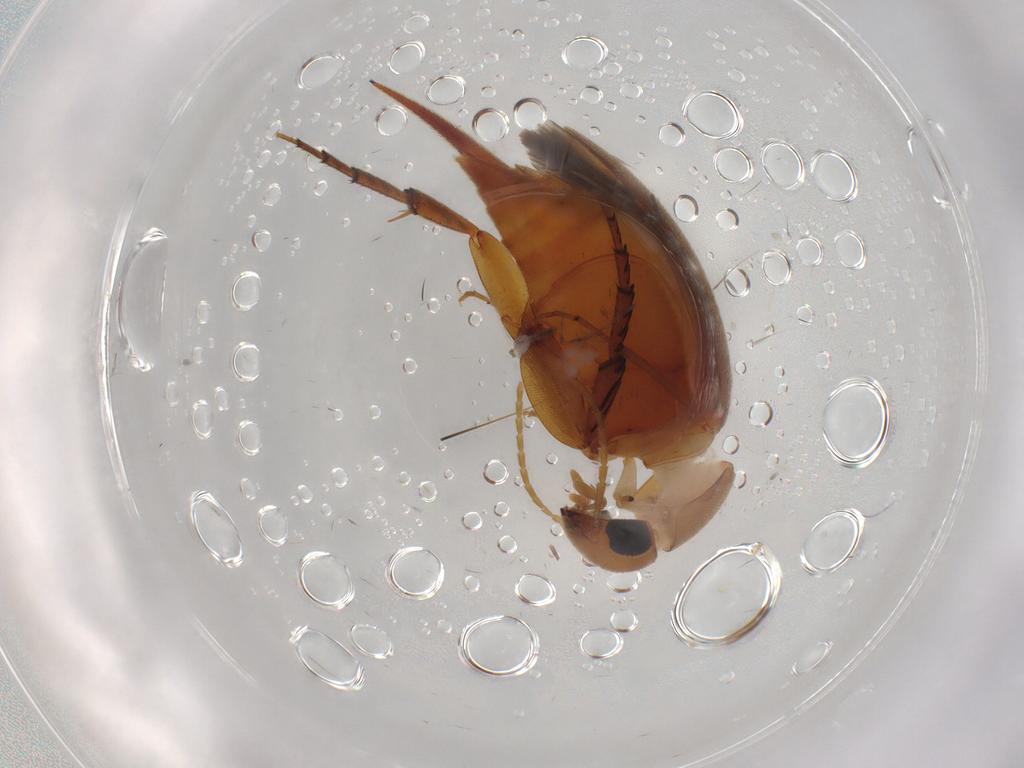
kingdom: Animalia
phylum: Arthropoda
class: Insecta
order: Coleoptera
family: Mordellidae
